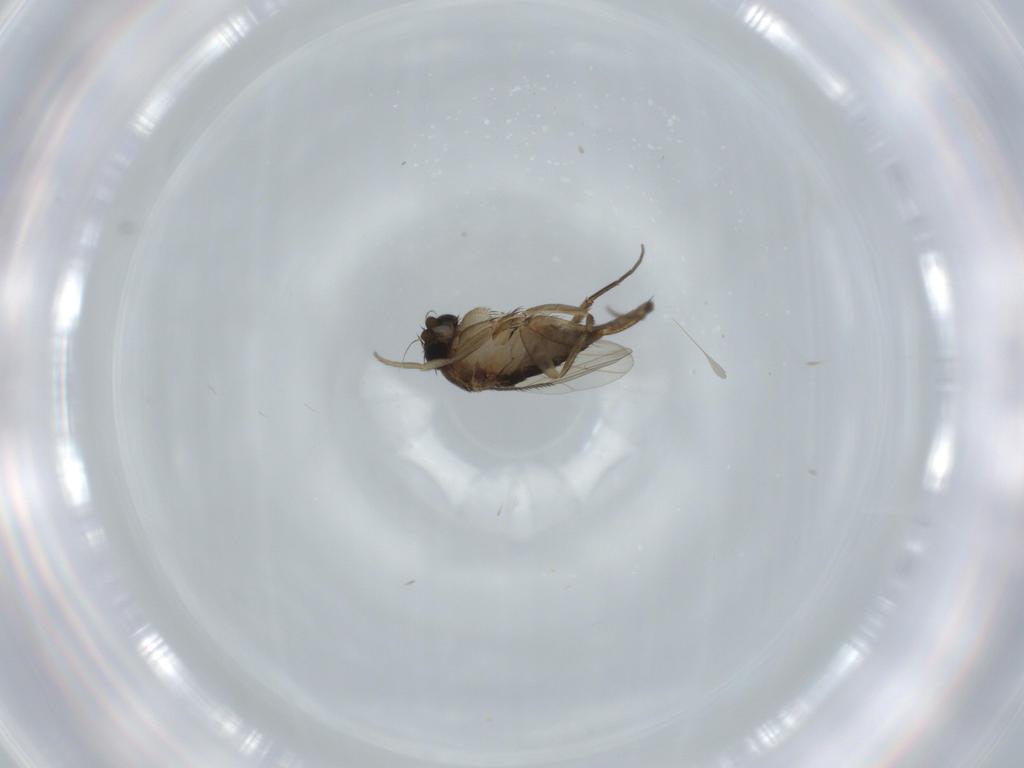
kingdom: Animalia
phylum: Arthropoda
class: Insecta
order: Diptera
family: Phoridae
